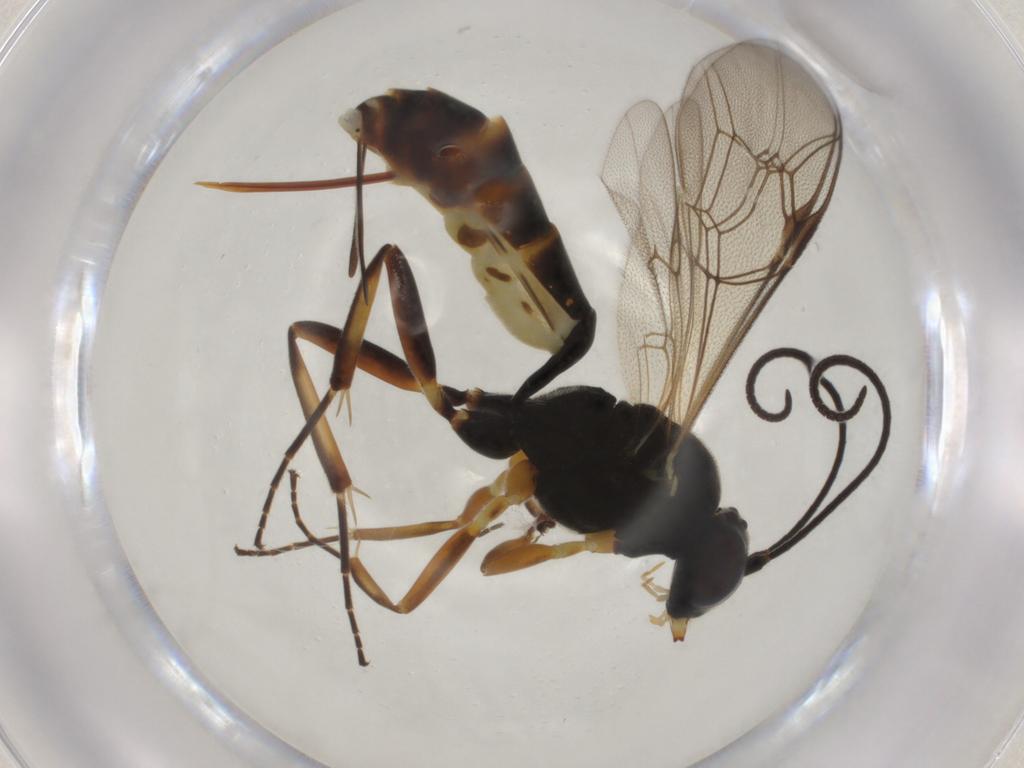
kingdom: Animalia
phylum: Arthropoda
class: Insecta
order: Hymenoptera
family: Ichneumonidae
